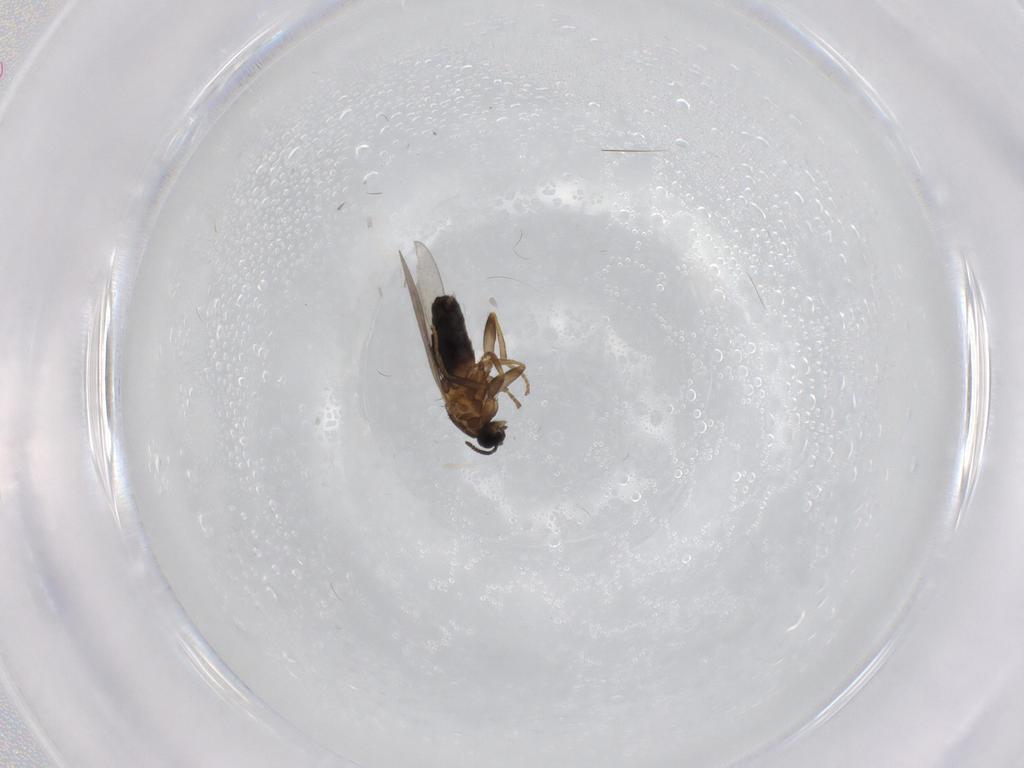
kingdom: Animalia
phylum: Arthropoda
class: Insecta
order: Diptera
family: Scatopsidae
